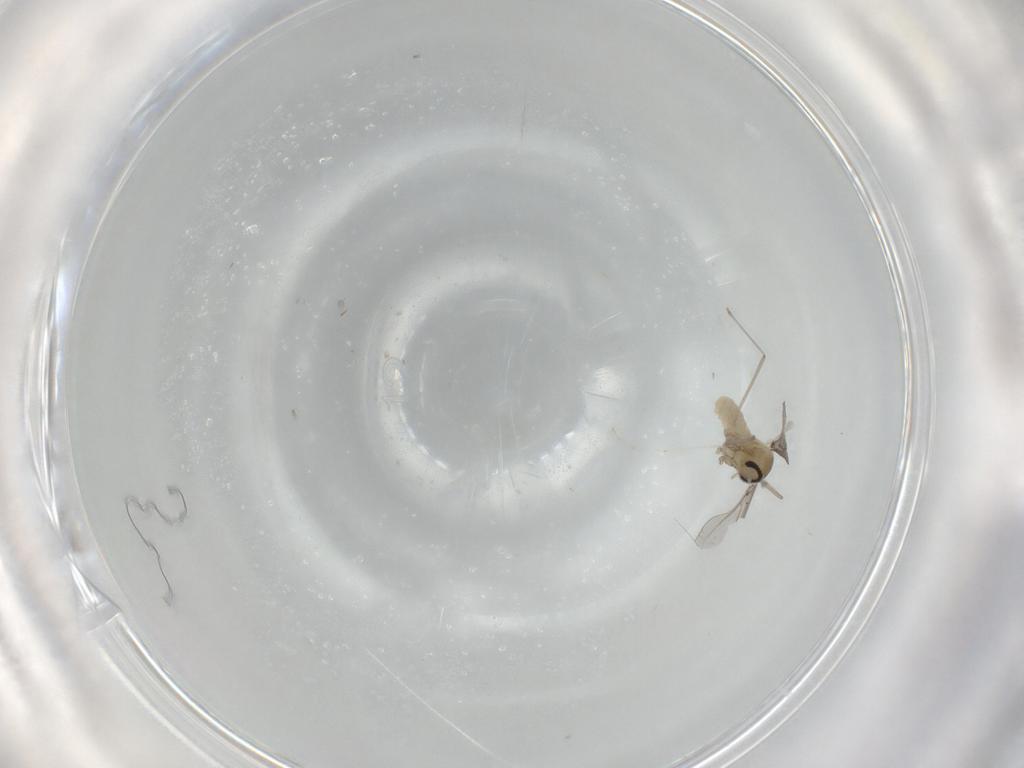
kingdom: Animalia
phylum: Arthropoda
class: Insecta
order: Diptera
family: Cecidomyiidae
